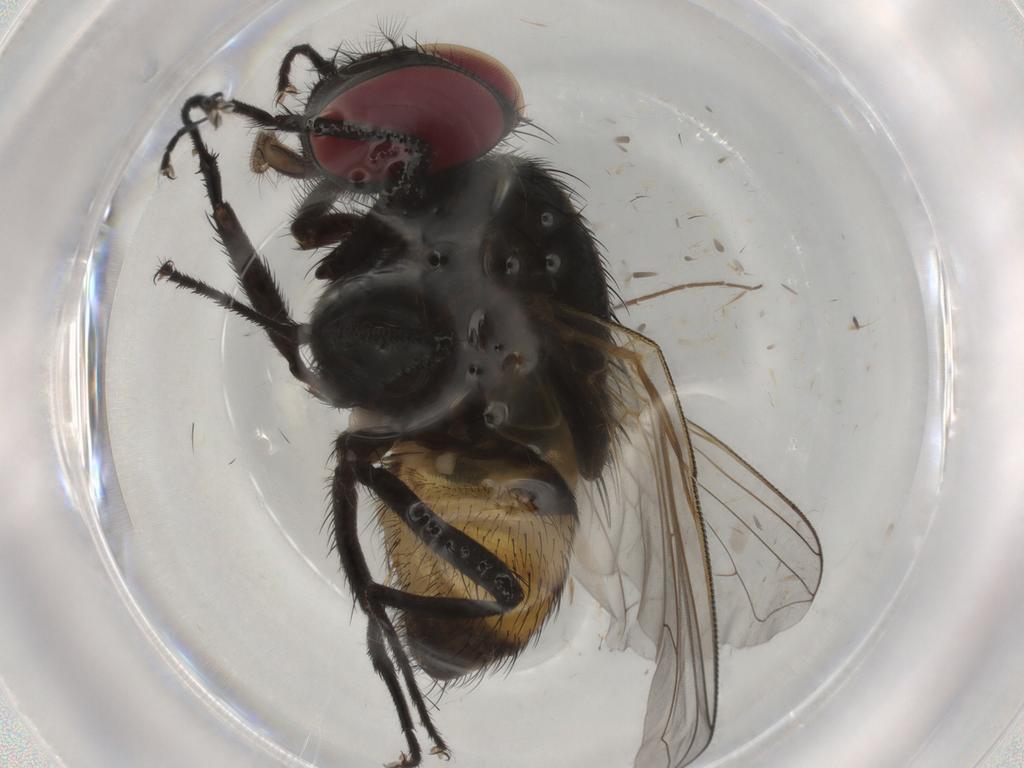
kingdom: Animalia
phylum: Arthropoda
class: Insecta
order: Diptera
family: Muscidae
